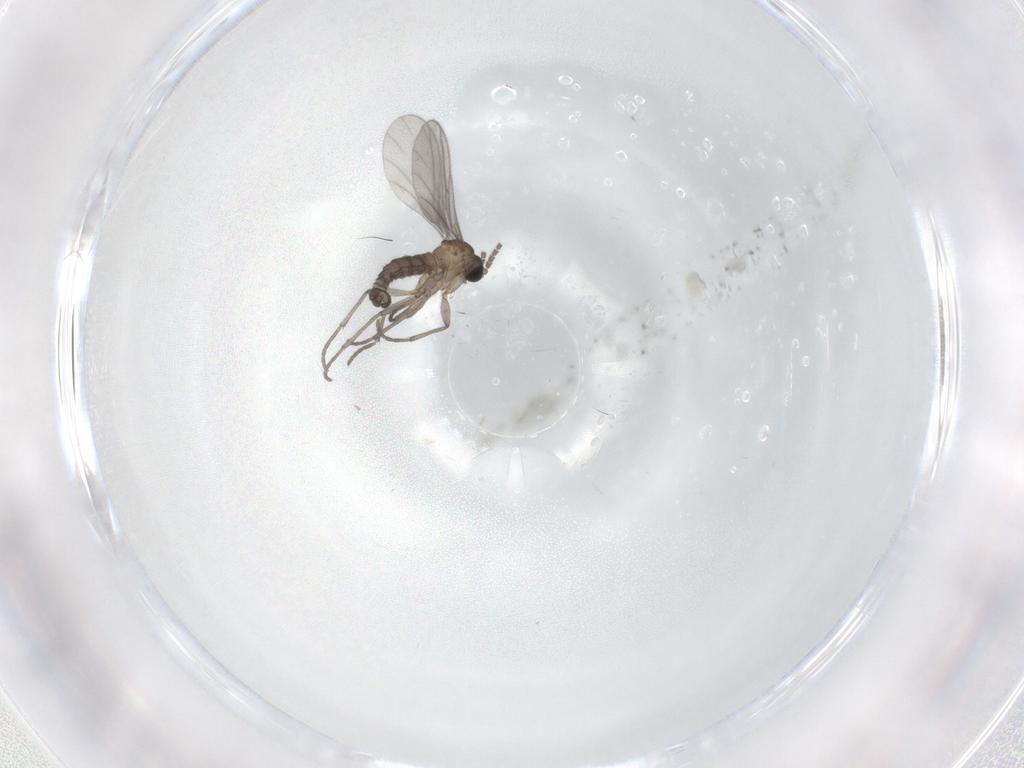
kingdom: Animalia
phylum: Arthropoda
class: Insecta
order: Diptera
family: Sciaridae
